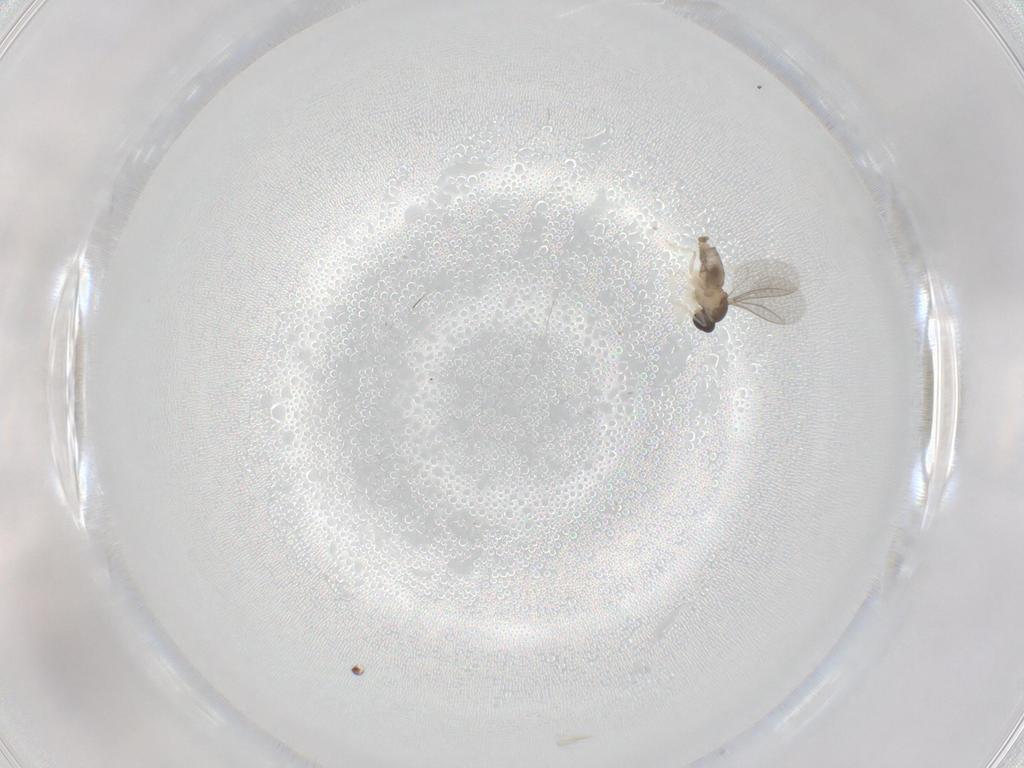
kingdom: Animalia
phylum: Arthropoda
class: Insecta
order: Diptera
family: Cecidomyiidae
